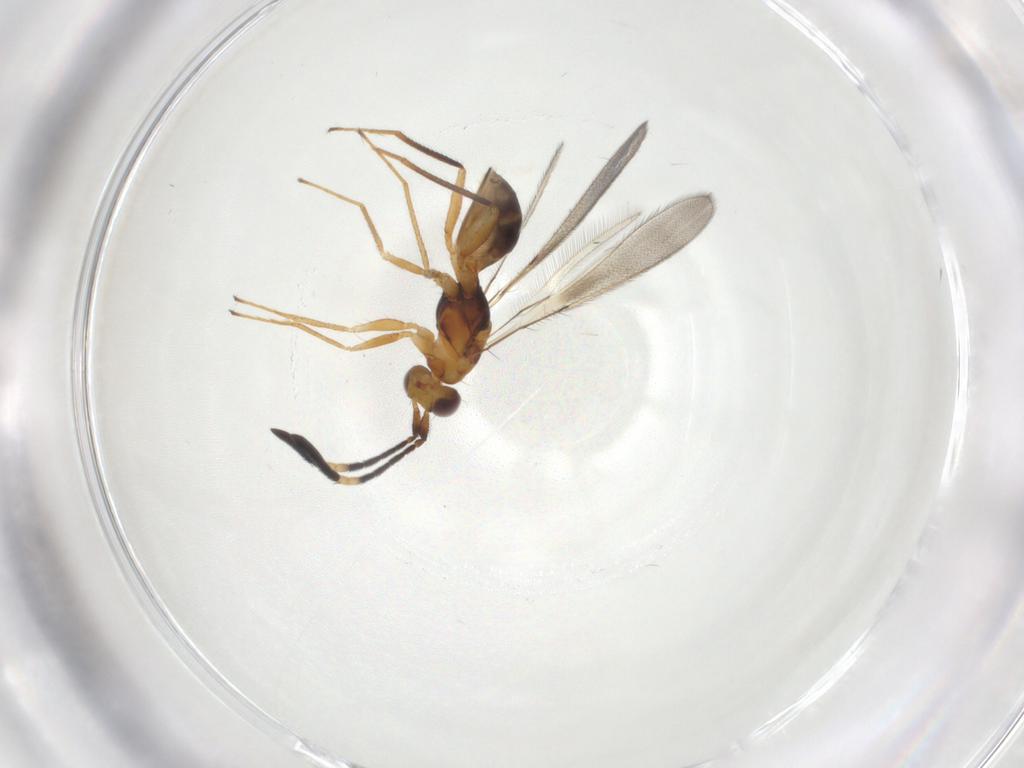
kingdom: Animalia
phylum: Arthropoda
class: Insecta
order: Hymenoptera
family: Mymaridae
